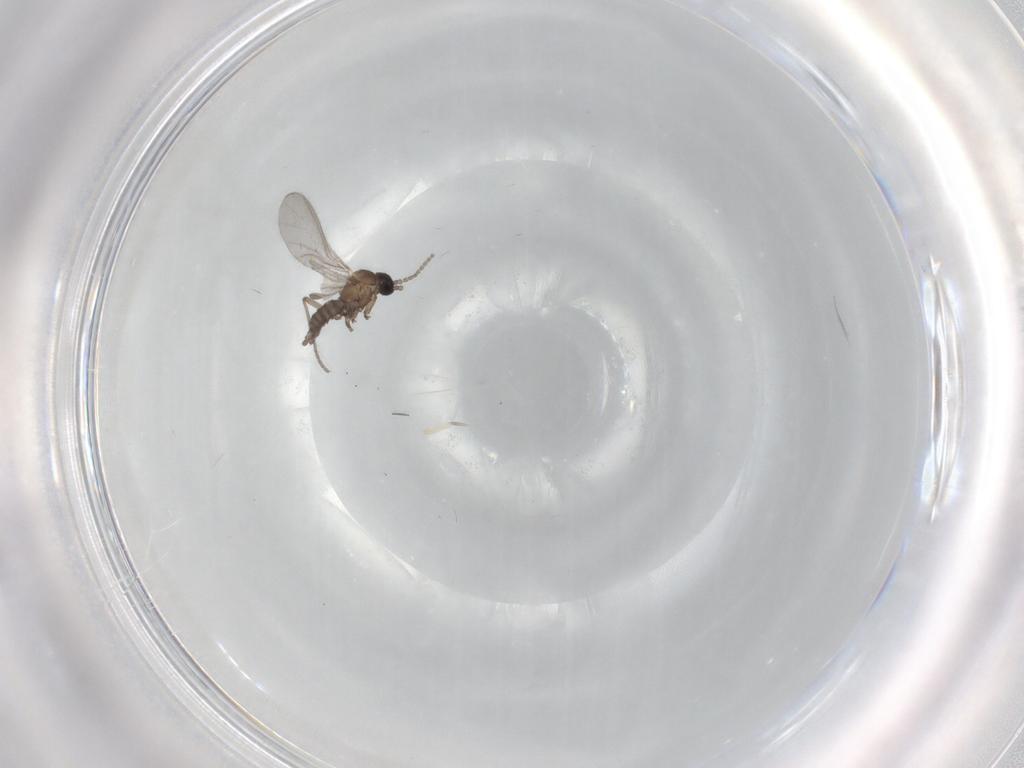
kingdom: Animalia
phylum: Arthropoda
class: Insecta
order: Diptera
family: Sciaridae
